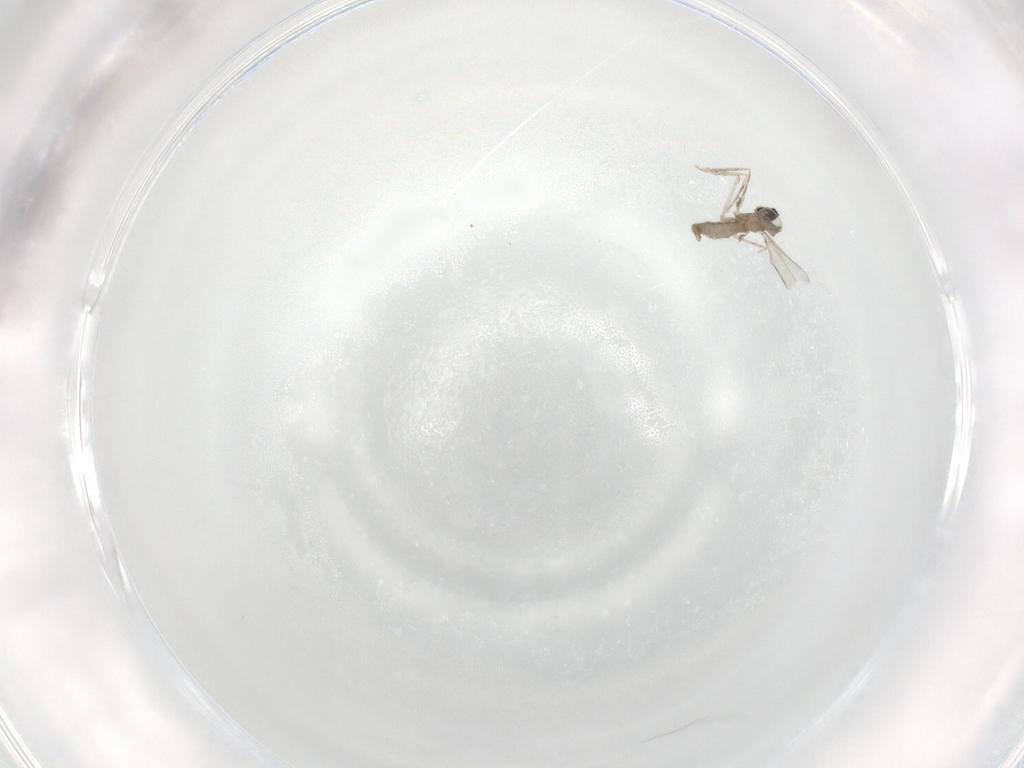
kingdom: Animalia
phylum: Arthropoda
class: Insecta
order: Diptera
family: Cecidomyiidae
